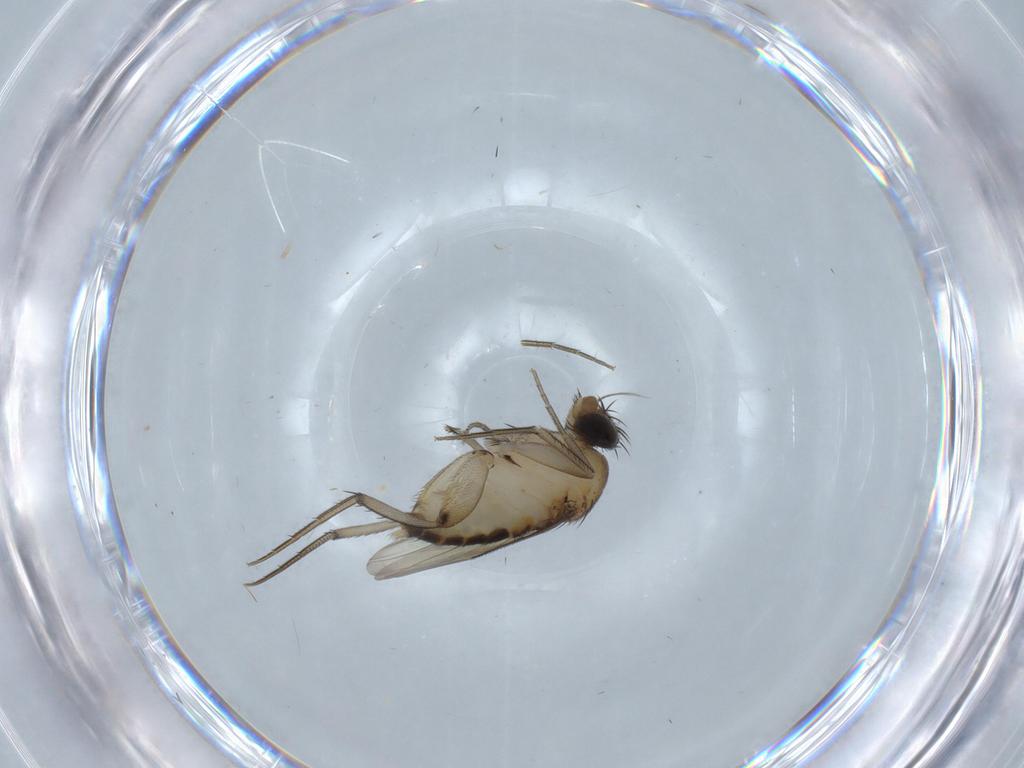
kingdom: Animalia
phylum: Arthropoda
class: Insecta
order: Diptera
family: Phoridae
